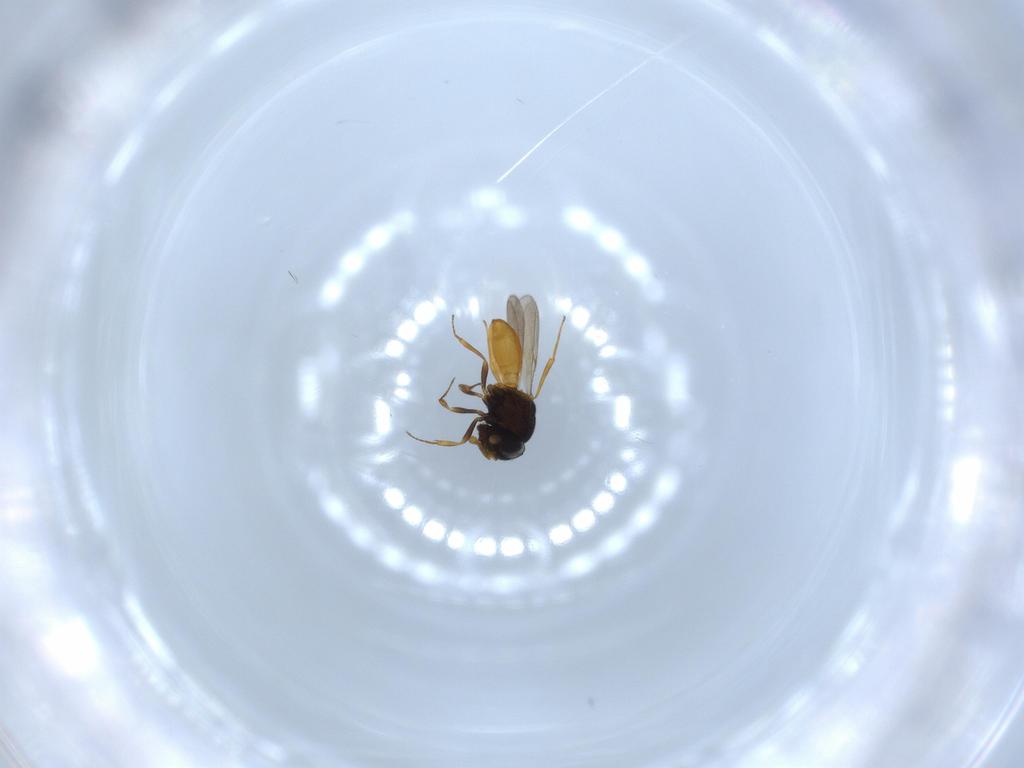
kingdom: Animalia
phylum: Arthropoda
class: Insecta
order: Hymenoptera
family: Scelionidae
